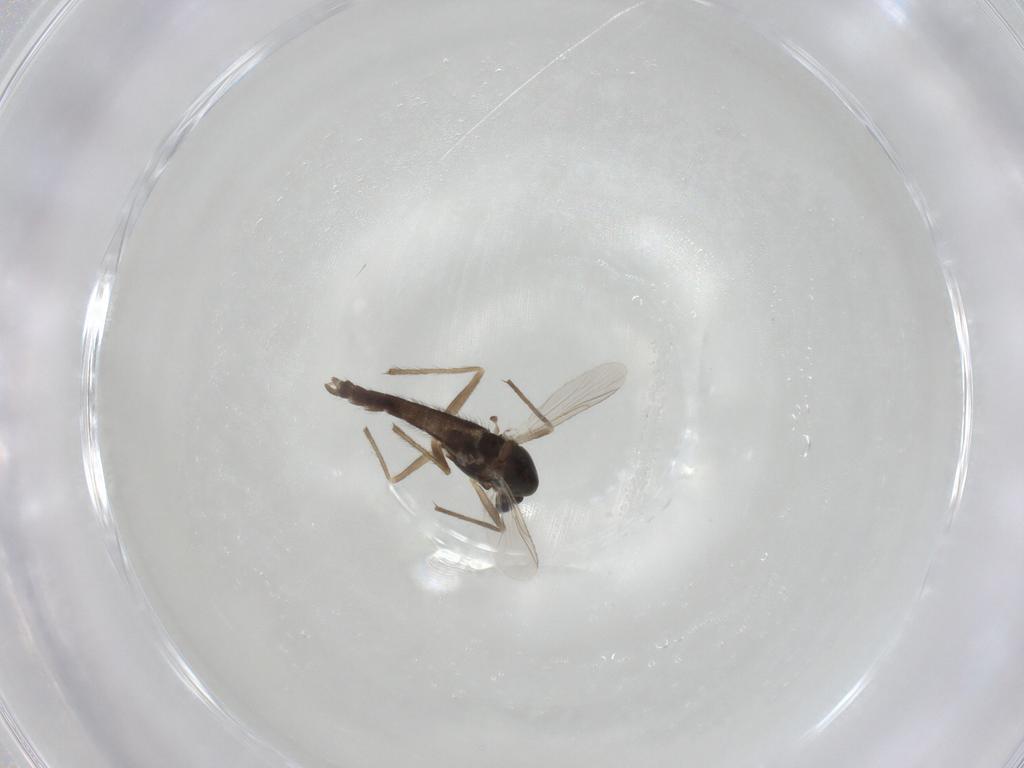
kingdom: Animalia
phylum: Arthropoda
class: Insecta
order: Diptera
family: Chironomidae
